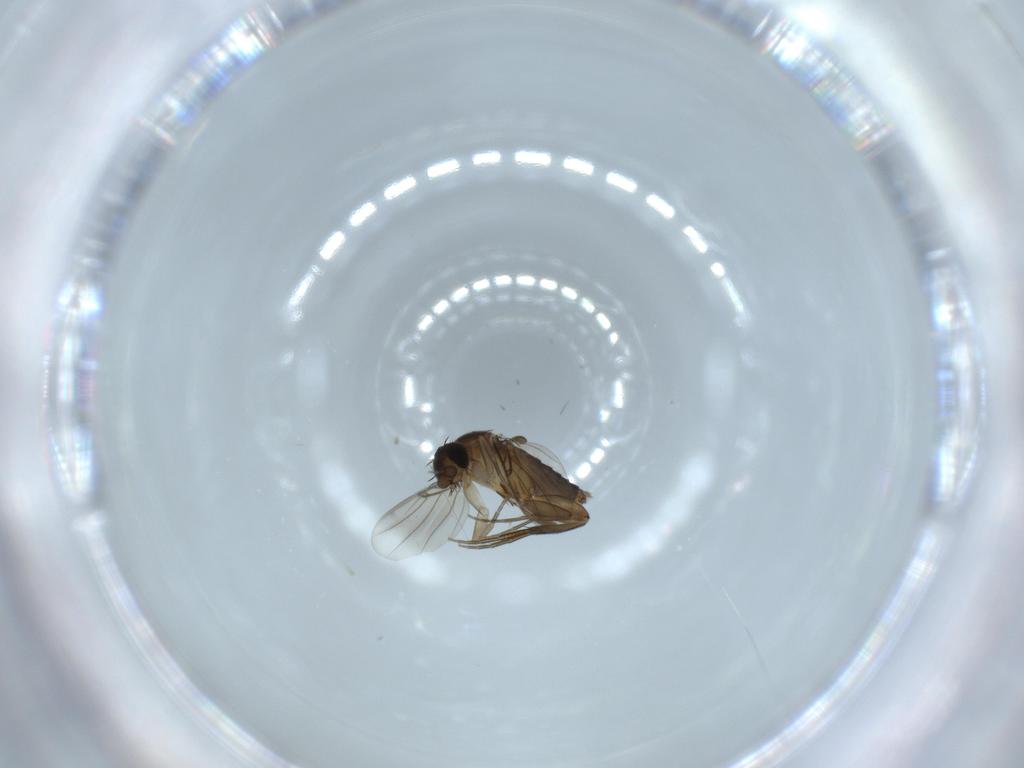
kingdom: Animalia
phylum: Arthropoda
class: Insecta
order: Diptera
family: Phoridae
